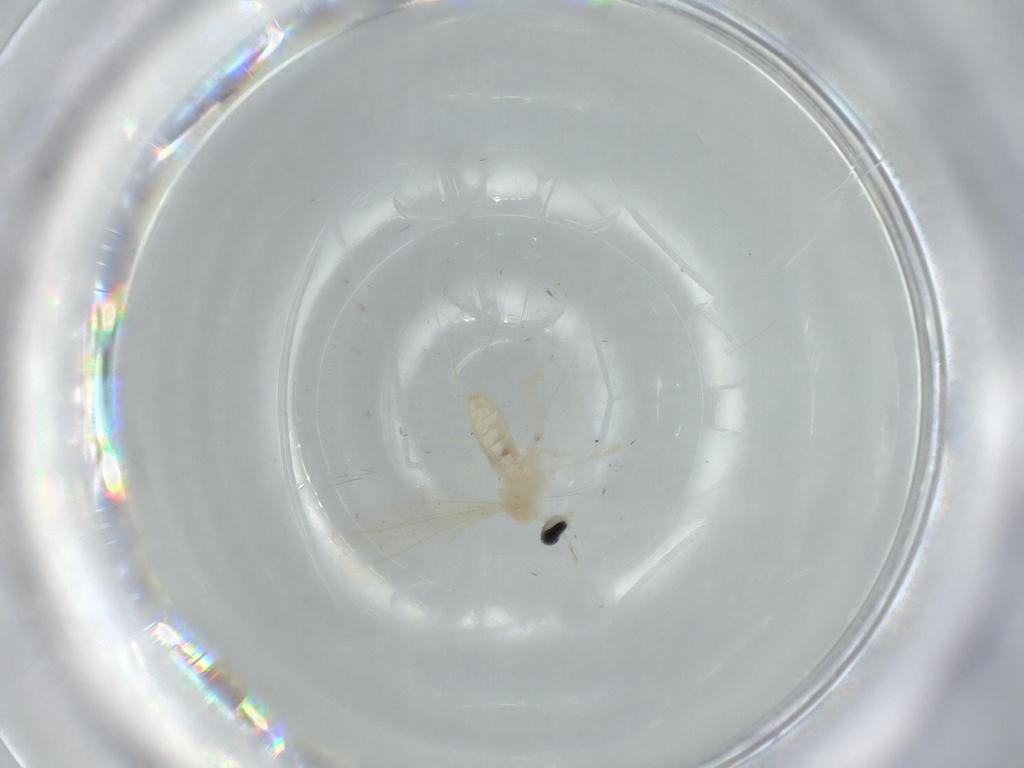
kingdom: Animalia
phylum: Arthropoda
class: Insecta
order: Diptera
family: Cecidomyiidae
